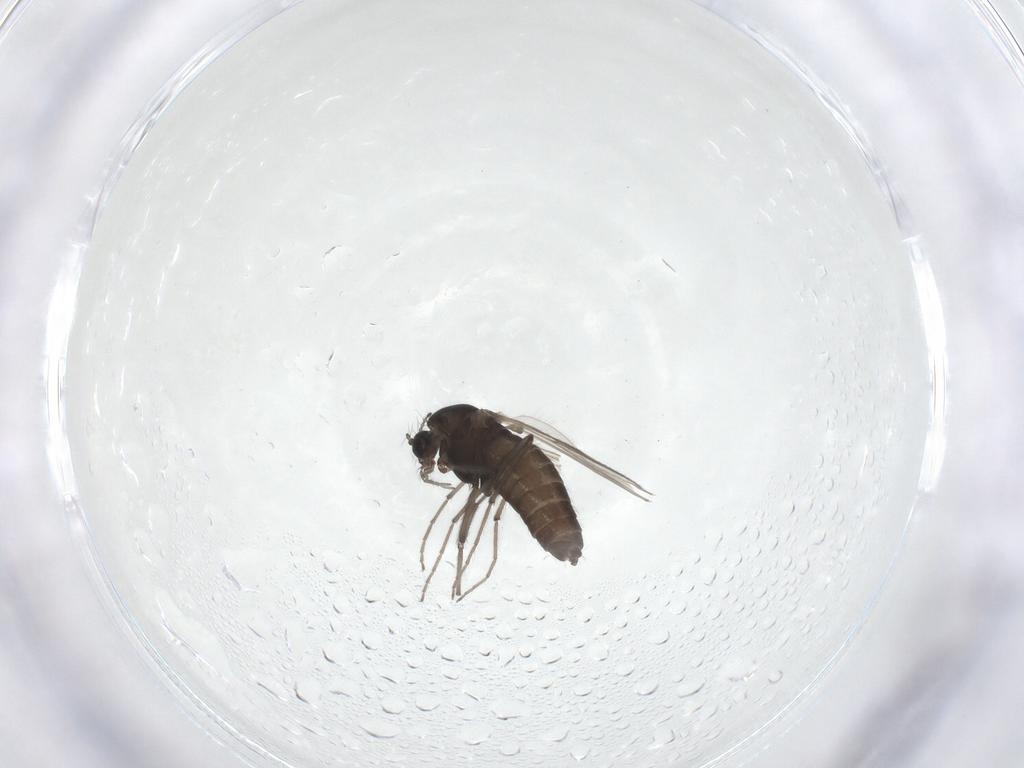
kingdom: Animalia
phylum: Arthropoda
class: Insecta
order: Diptera
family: Chironomidae
